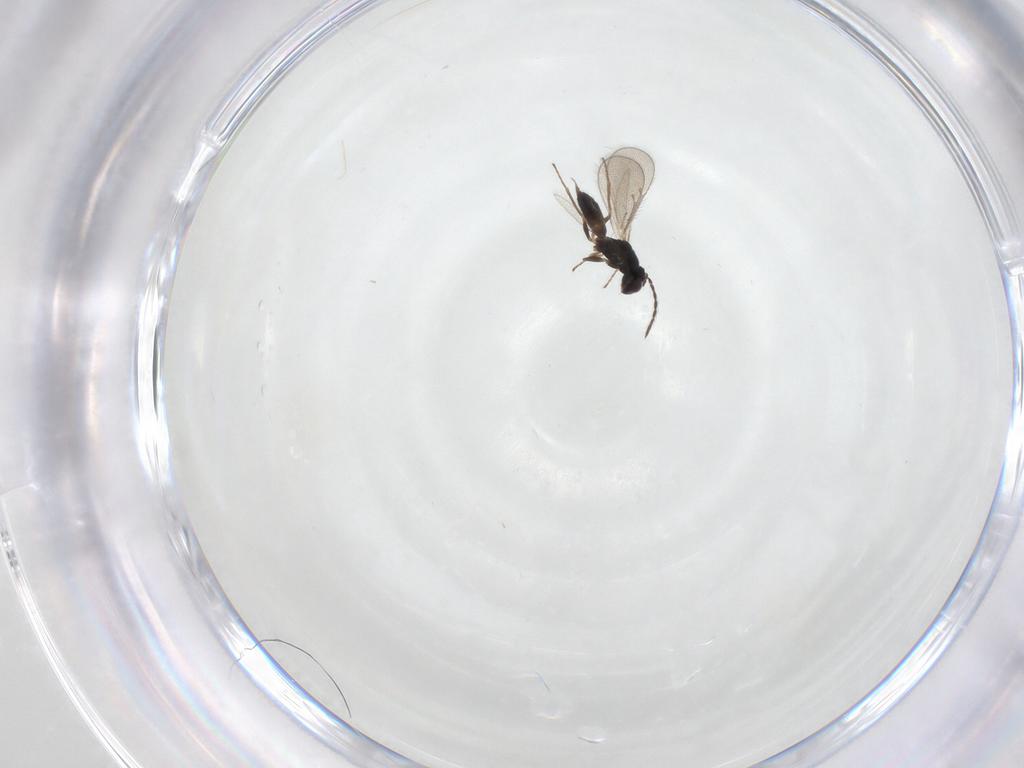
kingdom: Animalia
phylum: Arthropoda
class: Insecta
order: Hymenoptera
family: Eulophidae
